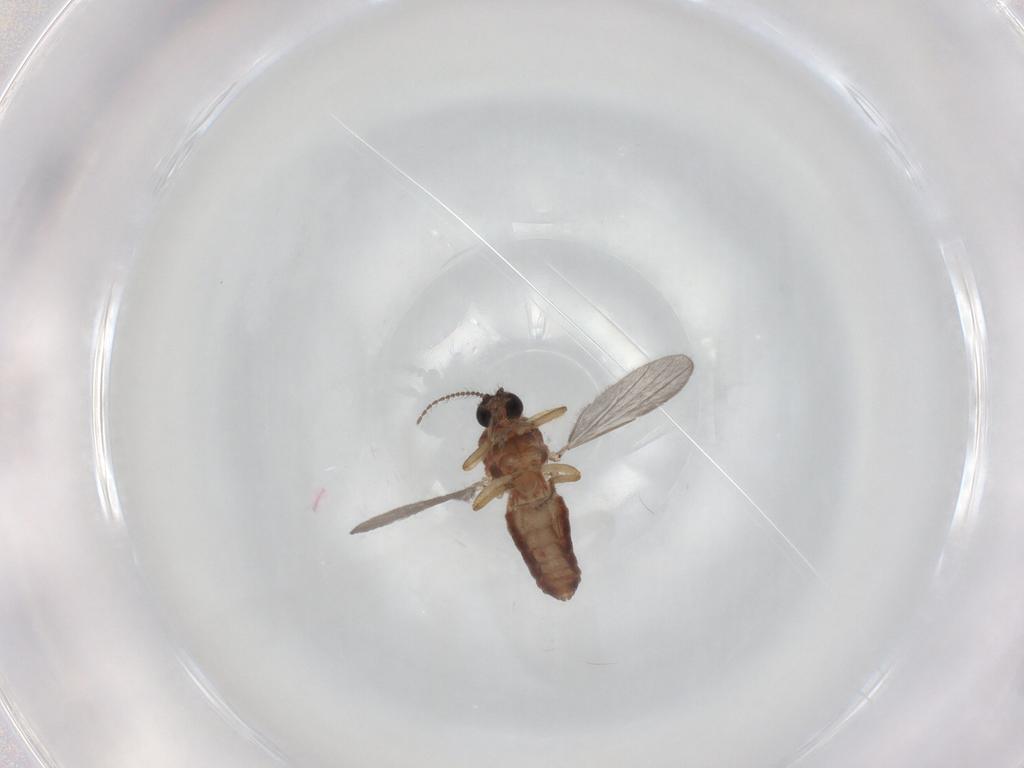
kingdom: Animalia
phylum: Arthropoda
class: Insecta
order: Diptera
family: Ceratopogonidae
